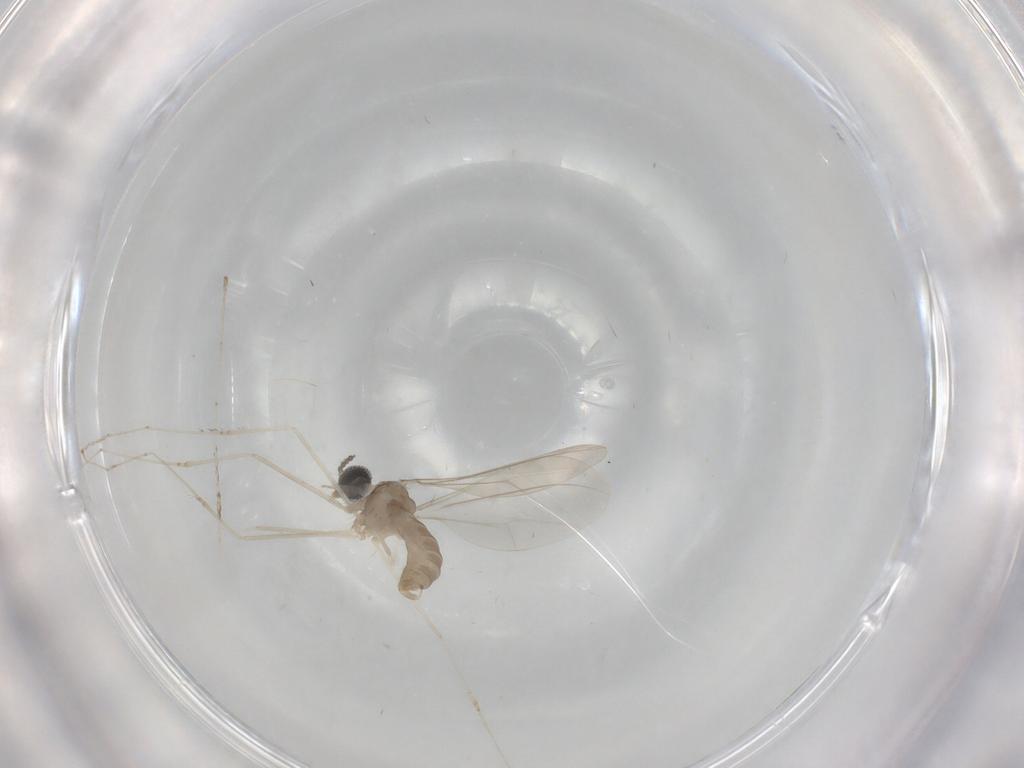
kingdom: Animalia
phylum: Arthropoda
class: Insecta
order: Diptera
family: Cecidomyiidae
